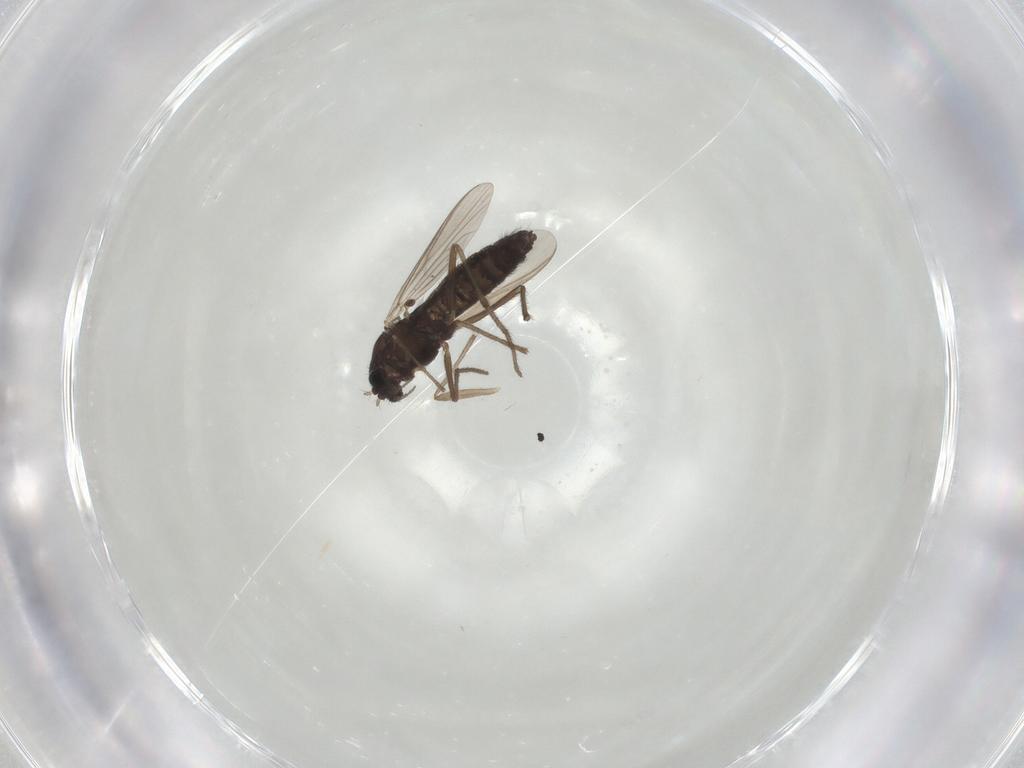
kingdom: Animalia
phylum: Arthropoda
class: Insecta
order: Diptera
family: Chironomidae
